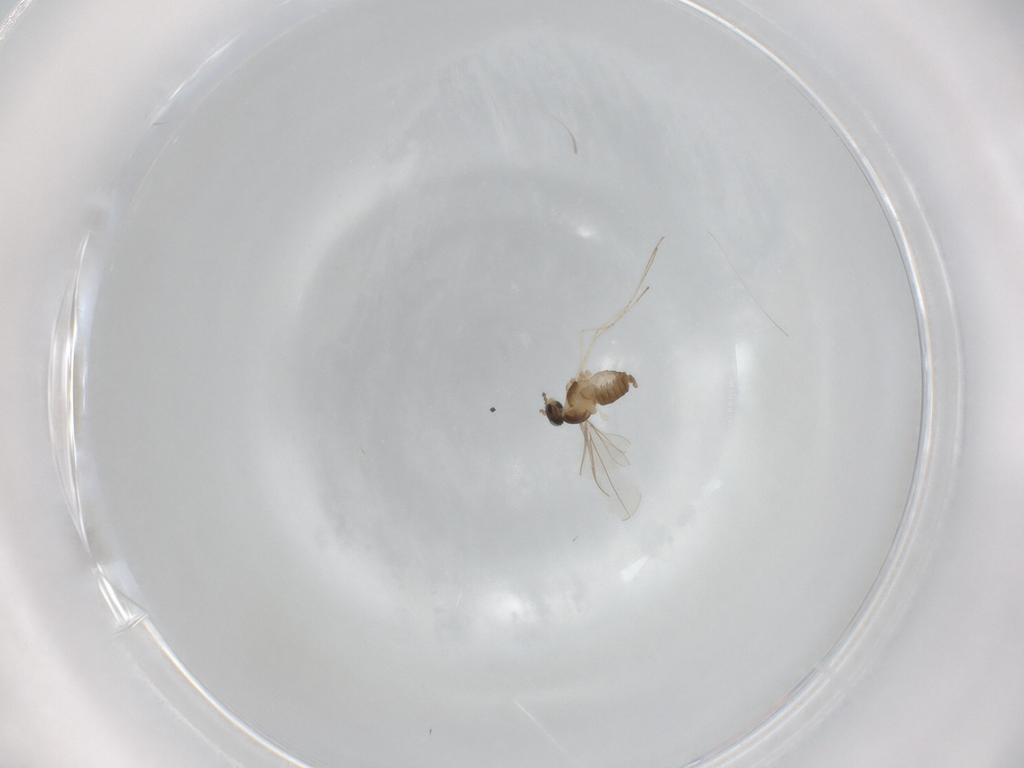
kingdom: Animalia
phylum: Arthropoda
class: Insecta
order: Diptera
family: Cecidomyiidae
